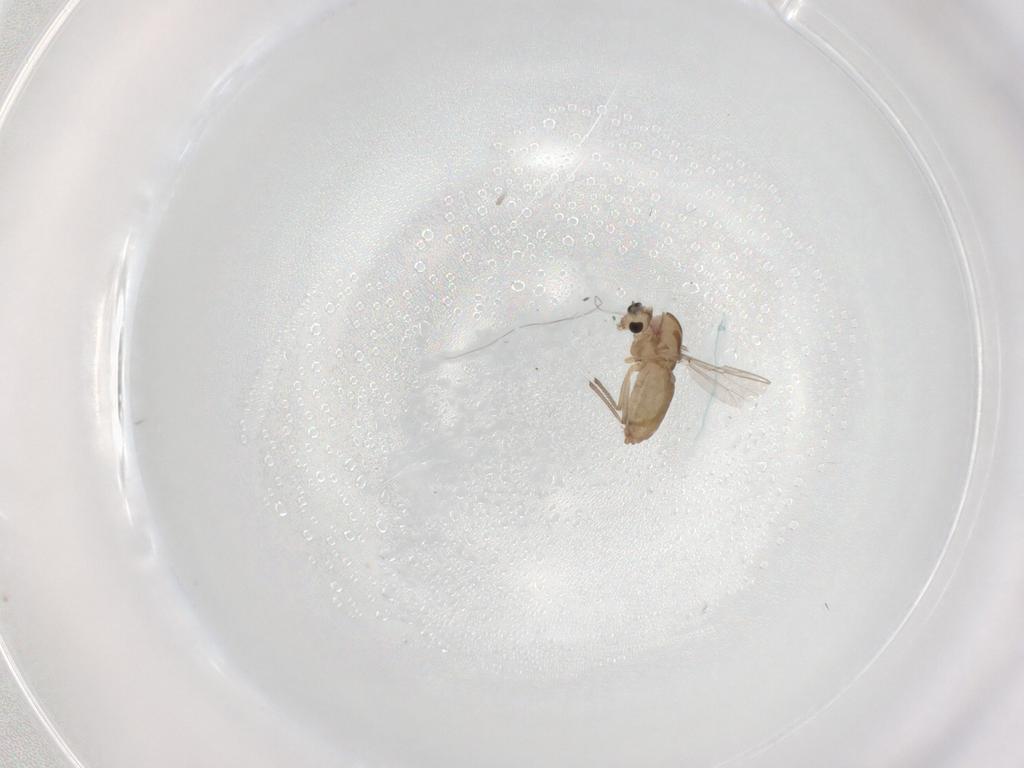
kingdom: Animalia
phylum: Arthropoda
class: Insecta
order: Diptera
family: Chironomidae
